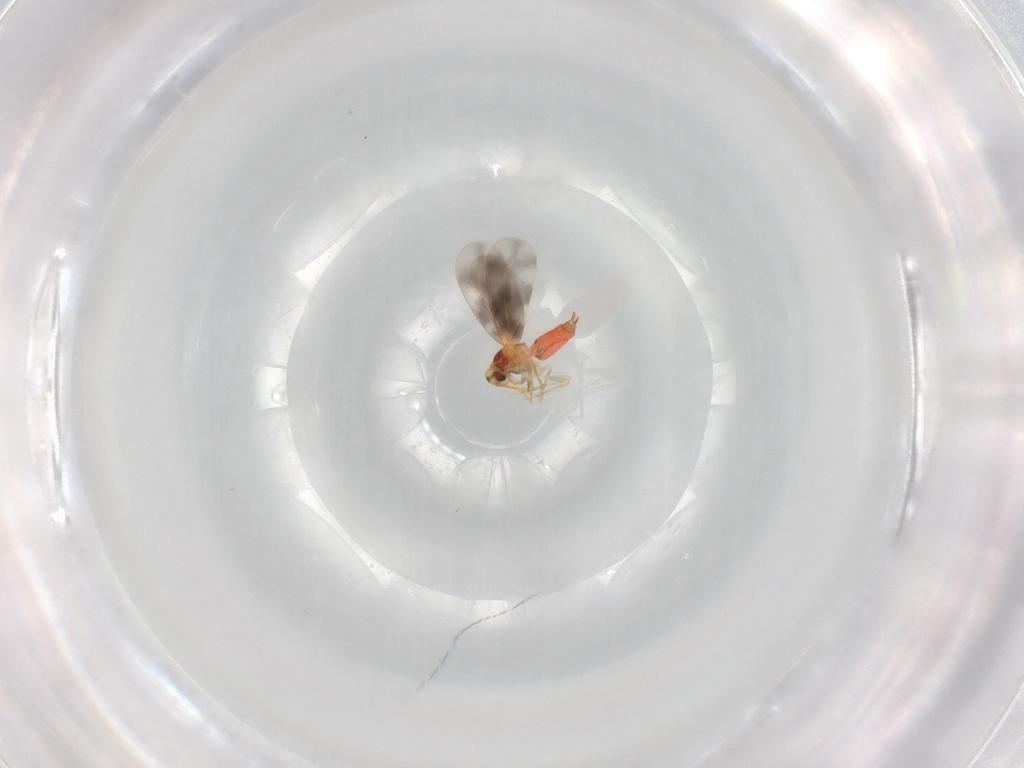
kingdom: Animalia
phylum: Arthropoda
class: Insecta
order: Hemiptera
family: Aleyrodidae
